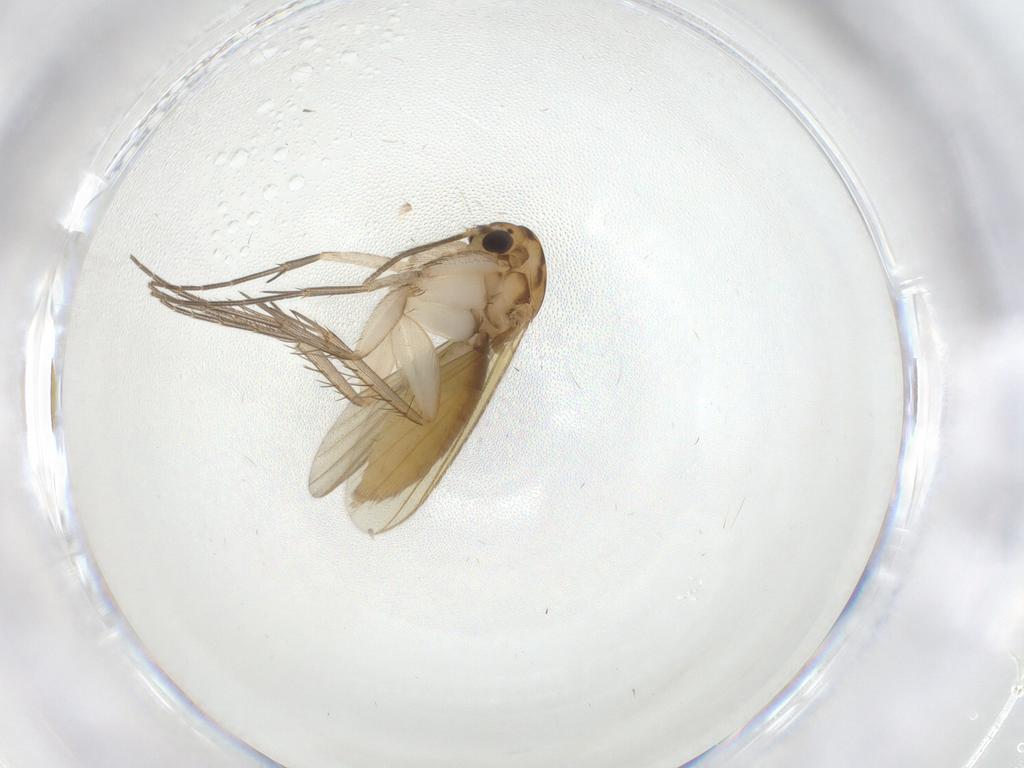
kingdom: Animalia
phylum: Arthropoda
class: Insecta
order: Diptera
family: Mycetophilidae
